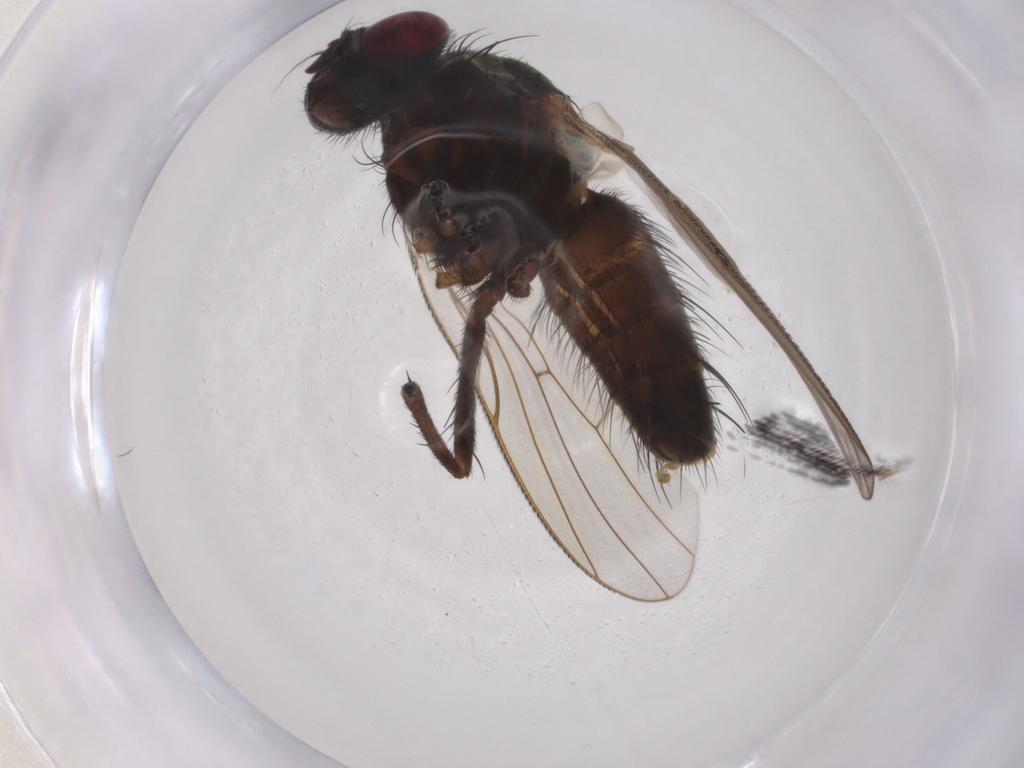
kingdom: Animalia
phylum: Arthropoda
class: Insecta
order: Diptera
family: Muscidae
